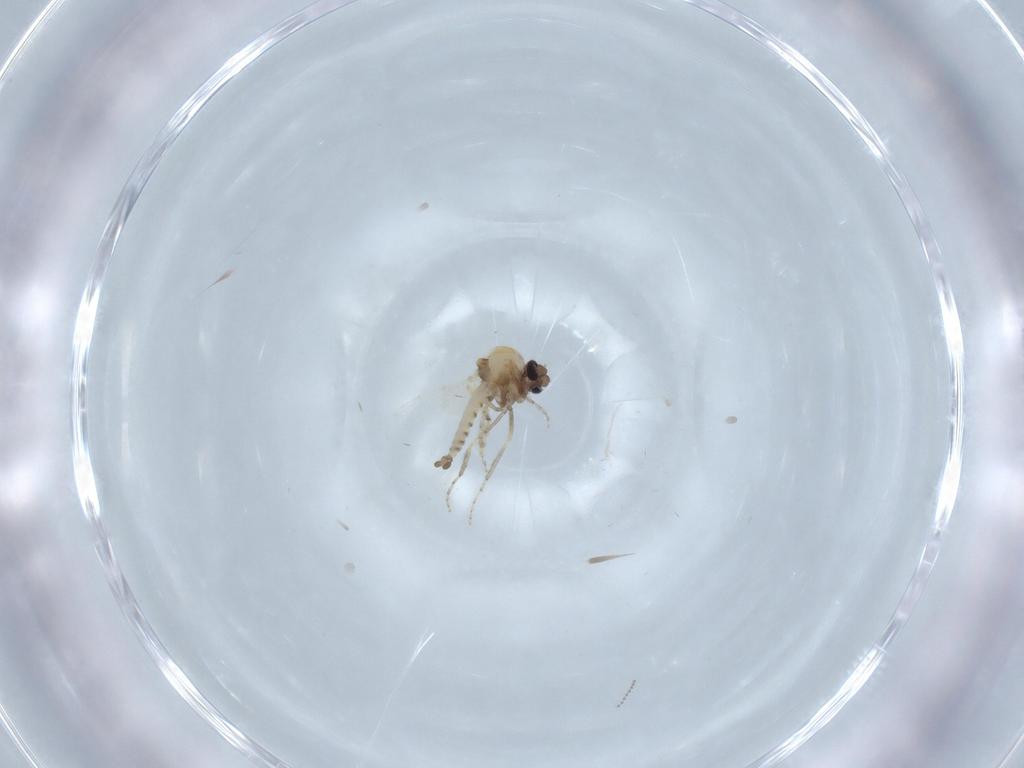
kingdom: Animalia
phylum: Arthropoda
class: Insecta
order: Diptera
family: Ceratopogonidae
